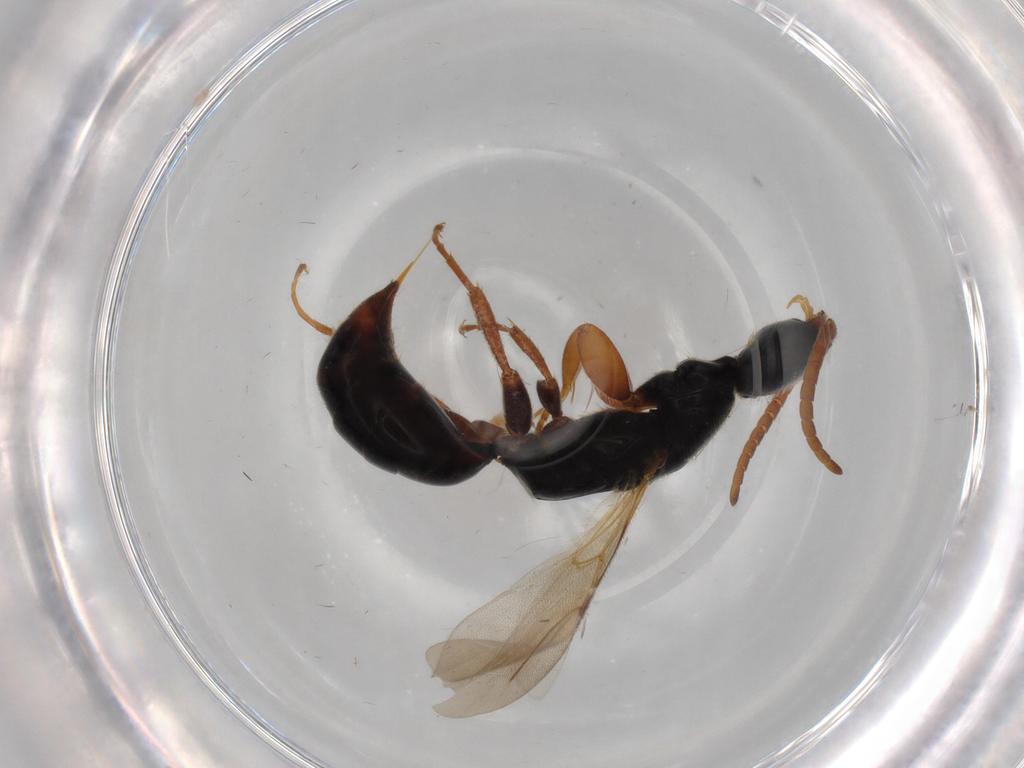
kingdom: Animalia
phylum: Arthropoda
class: Insecta
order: Hymenoptera
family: Bethylidae
